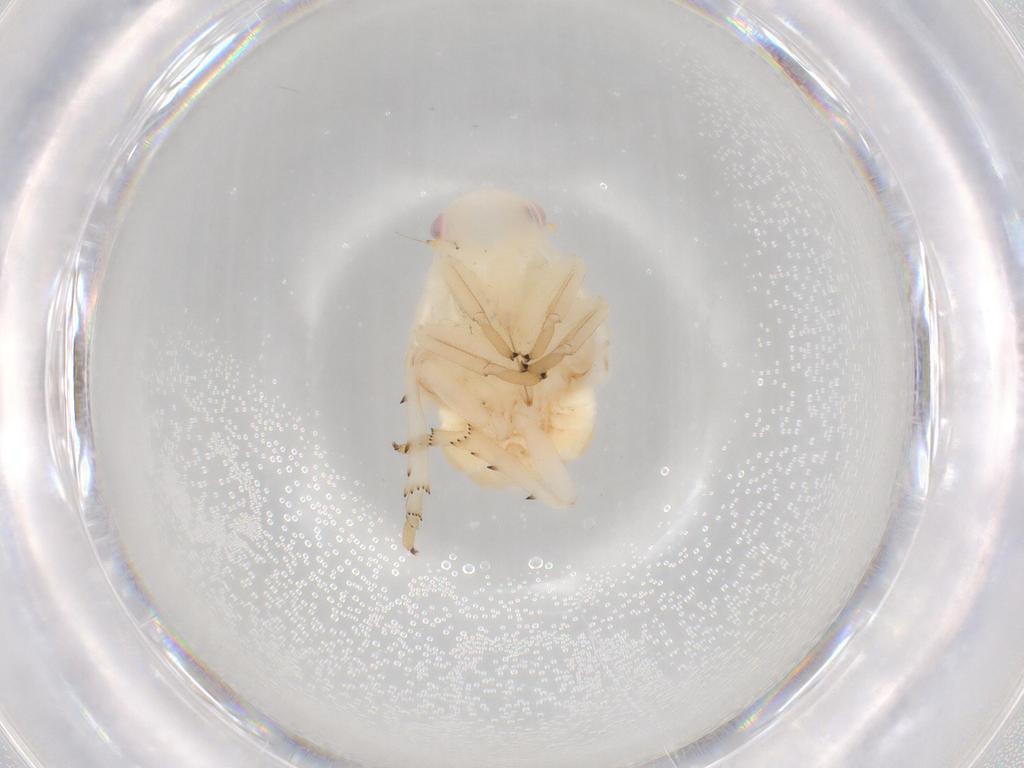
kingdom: Animalia
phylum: Arthropoda
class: Insecta
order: Hemiptera
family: Flatidae
